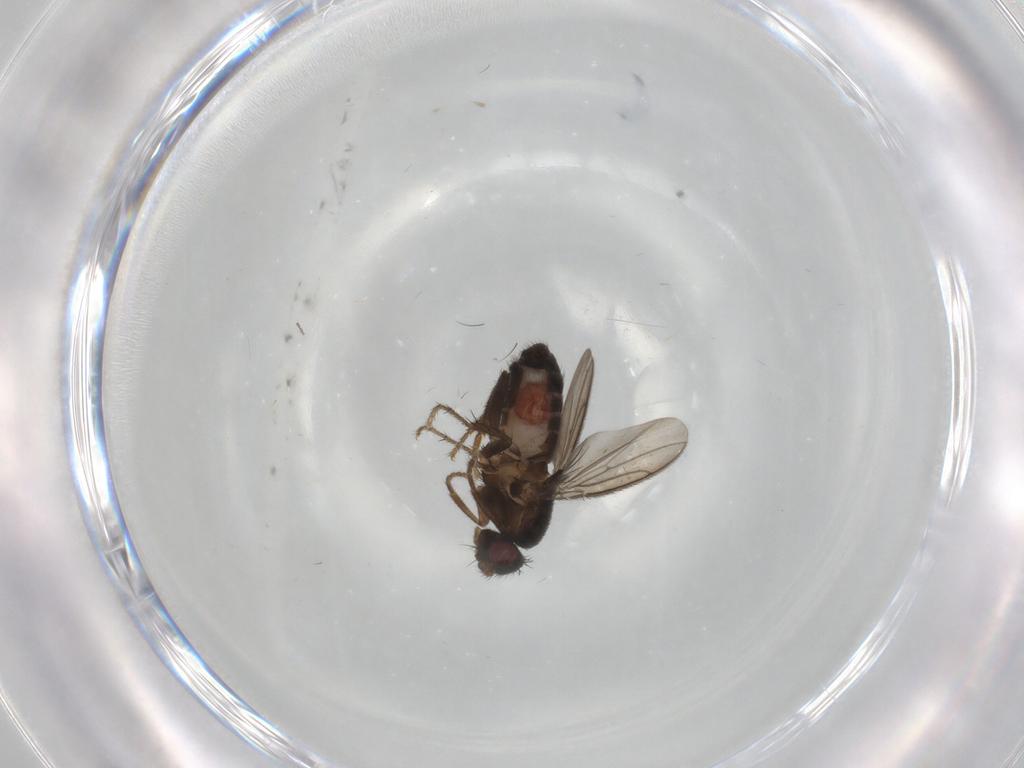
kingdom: Animalia
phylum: Arthropoda
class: Insecta
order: Diptera
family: Sphaeroceridae
